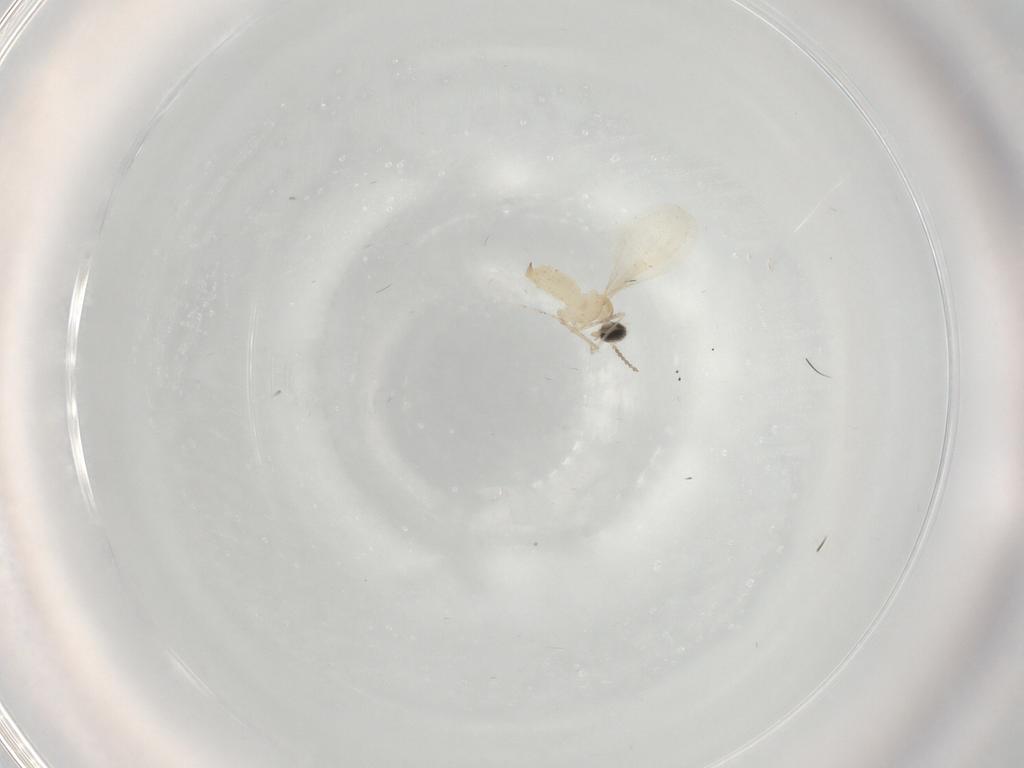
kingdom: Animalia
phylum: Arthropoda
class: Insecta
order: Diptera
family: Cecidomyiidae
